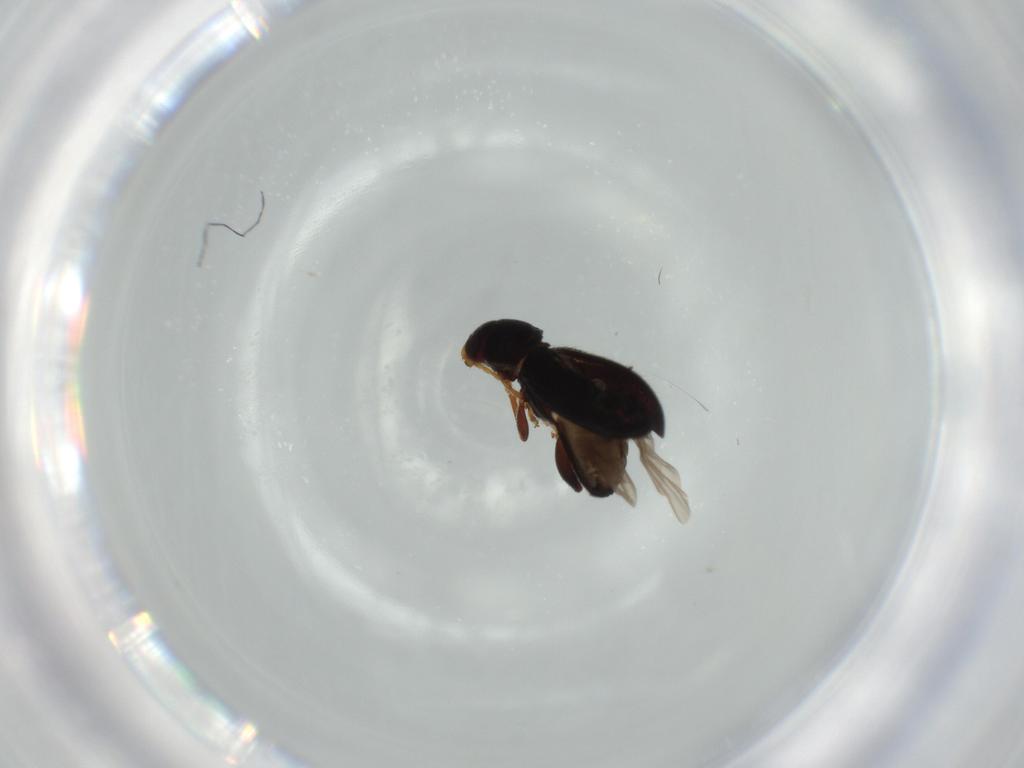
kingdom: Animalia
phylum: Arthropoda
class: Insecta
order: Coleoptera
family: Chrysomelidae
